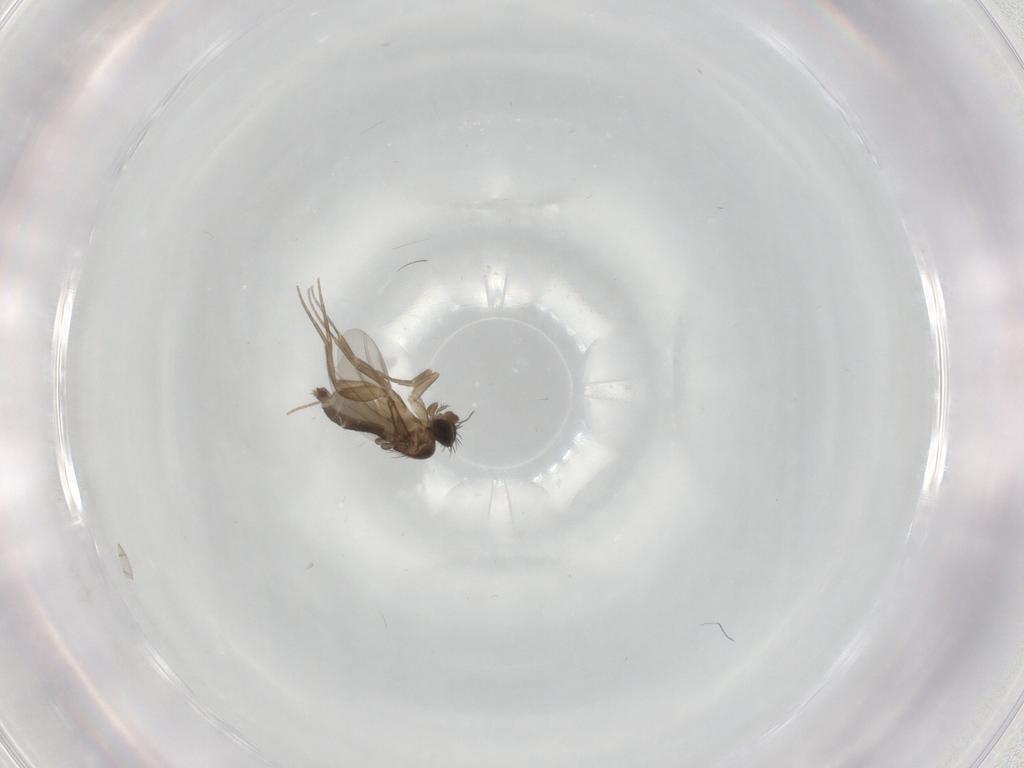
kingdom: Animalia
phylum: Arthropoda
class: Insecta
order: Diptera
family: Phoridae
